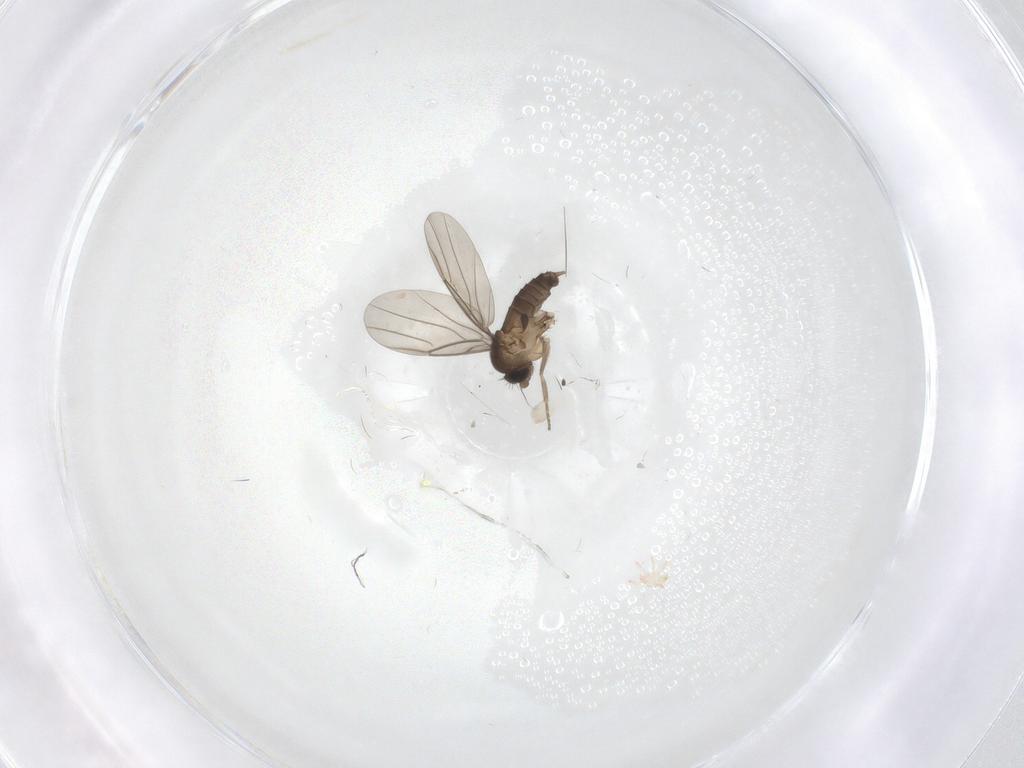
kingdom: Animalia
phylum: Arthropoda
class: Arachnida
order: Trombidiformes
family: Microtrombidiidae
